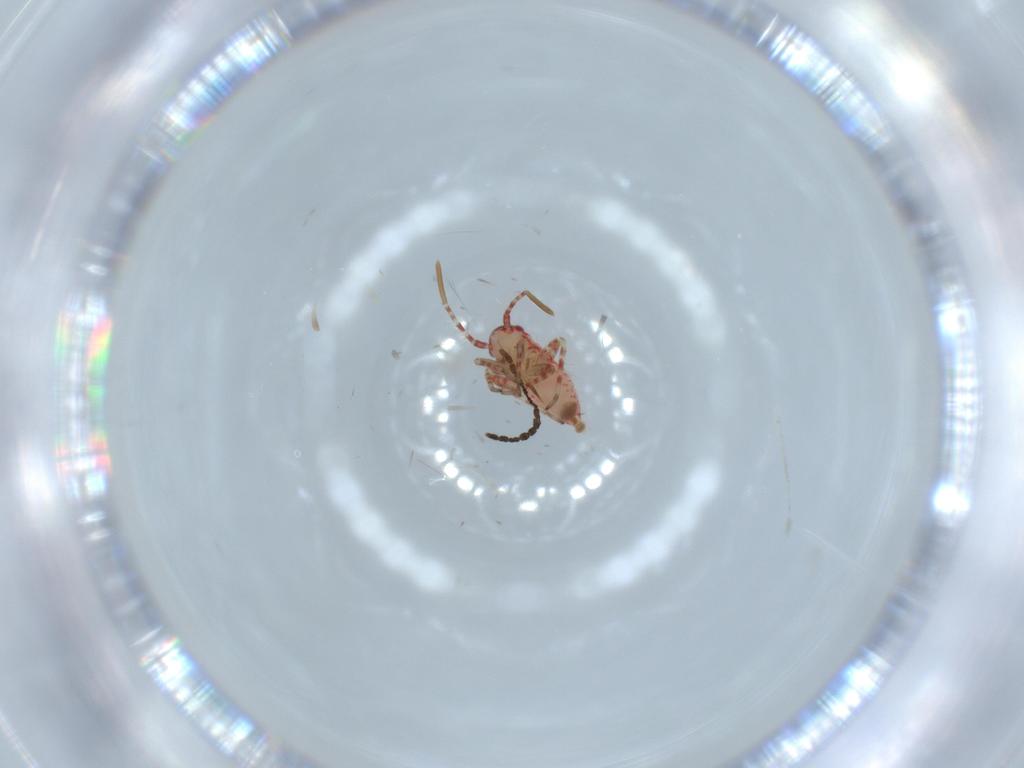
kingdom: Animalia
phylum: Arthropoda
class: Insecta
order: Hemiptera
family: Miridae
